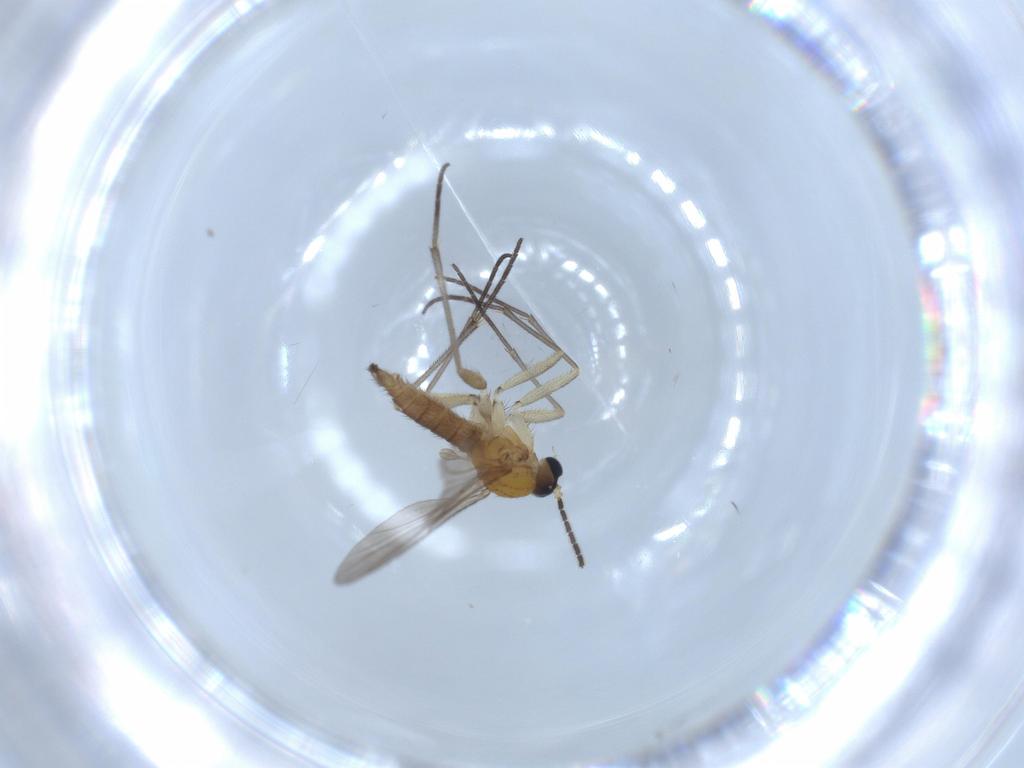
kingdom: Animalia
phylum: Arthropoda
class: Insecta
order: Diptera
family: Sciaridae
